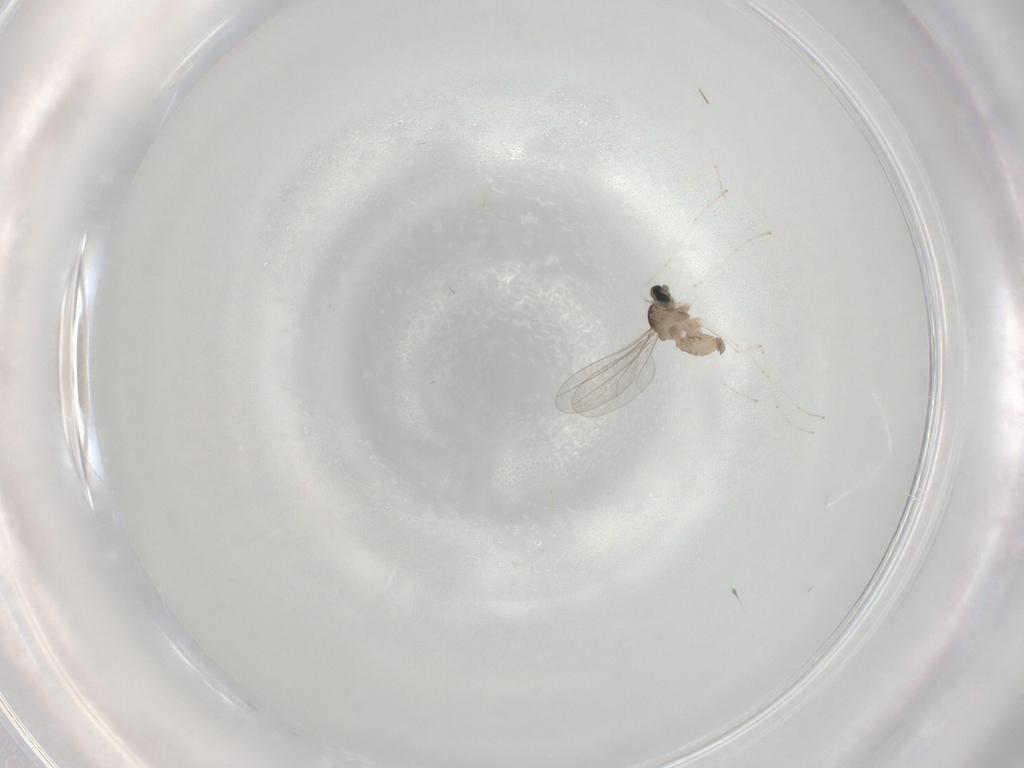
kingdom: Animalia
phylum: Arthropoda
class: Insecta
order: Diptera
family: Cecidomyiidae
